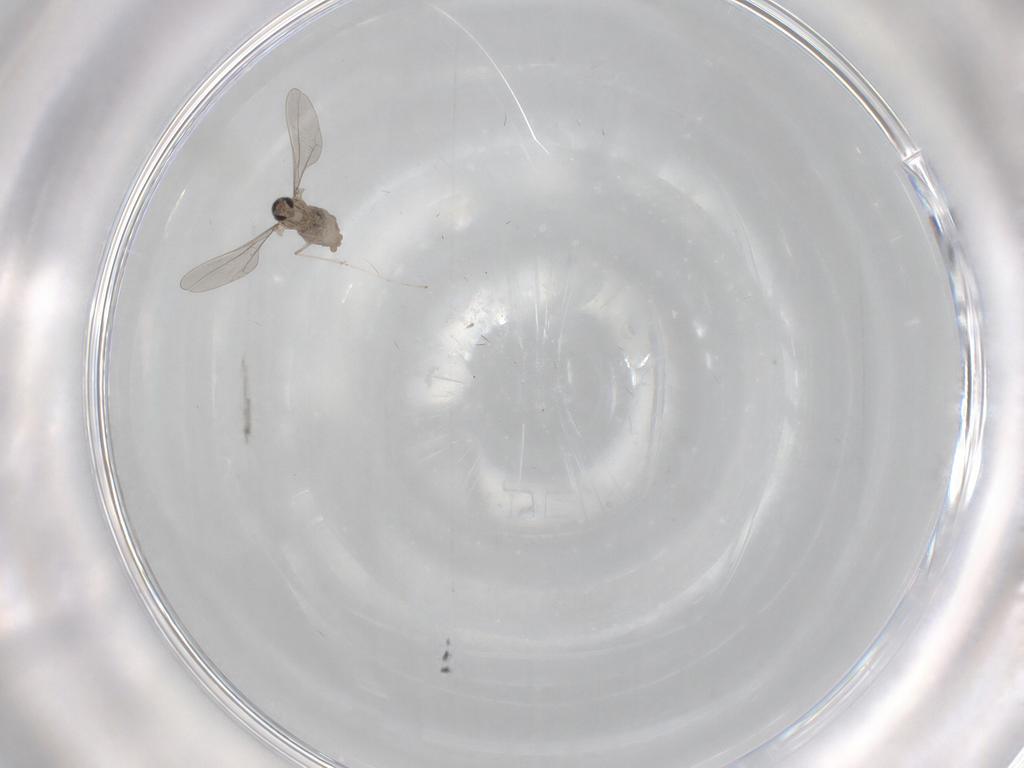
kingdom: Animalia
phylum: Arthropoda
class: Insecta
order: Diptera
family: Cecidomyiidae
